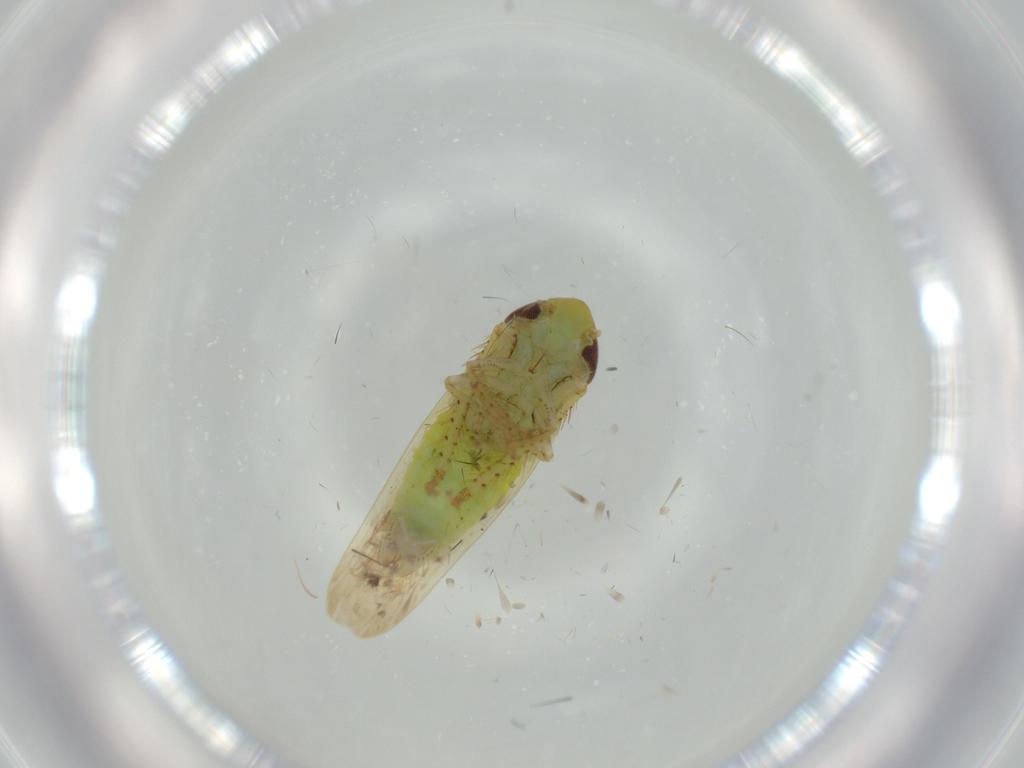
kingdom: Animalia
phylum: Arthropoda
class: Insecta
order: Hemiptera
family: Cicadellidae
